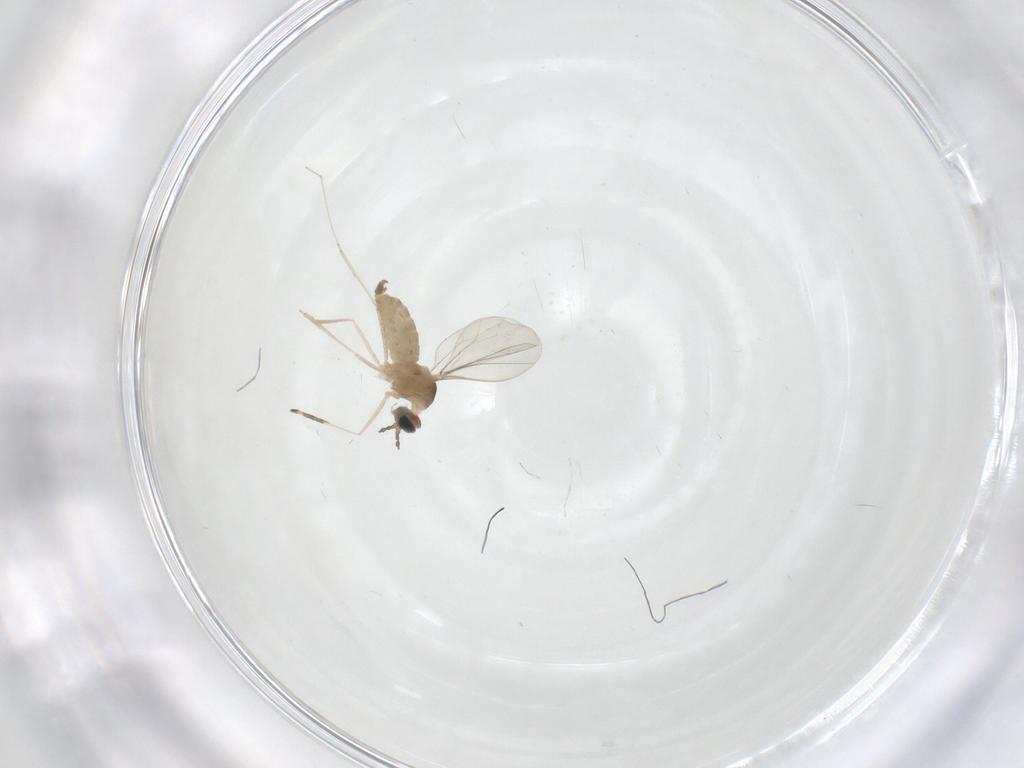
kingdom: Animalia
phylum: Arthropoda
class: Insecta
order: Diptera
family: Cecidomyiidae
